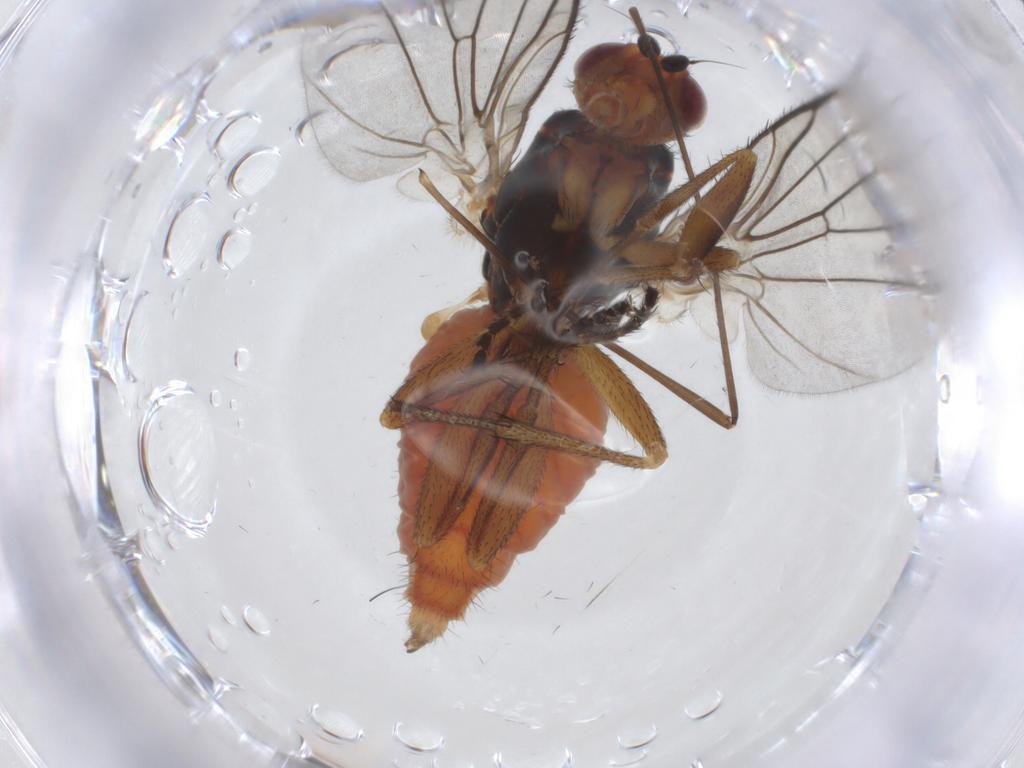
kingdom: Animalia
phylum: Arthropoda
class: Insecta
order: Diptera
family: Heleomyzidae
